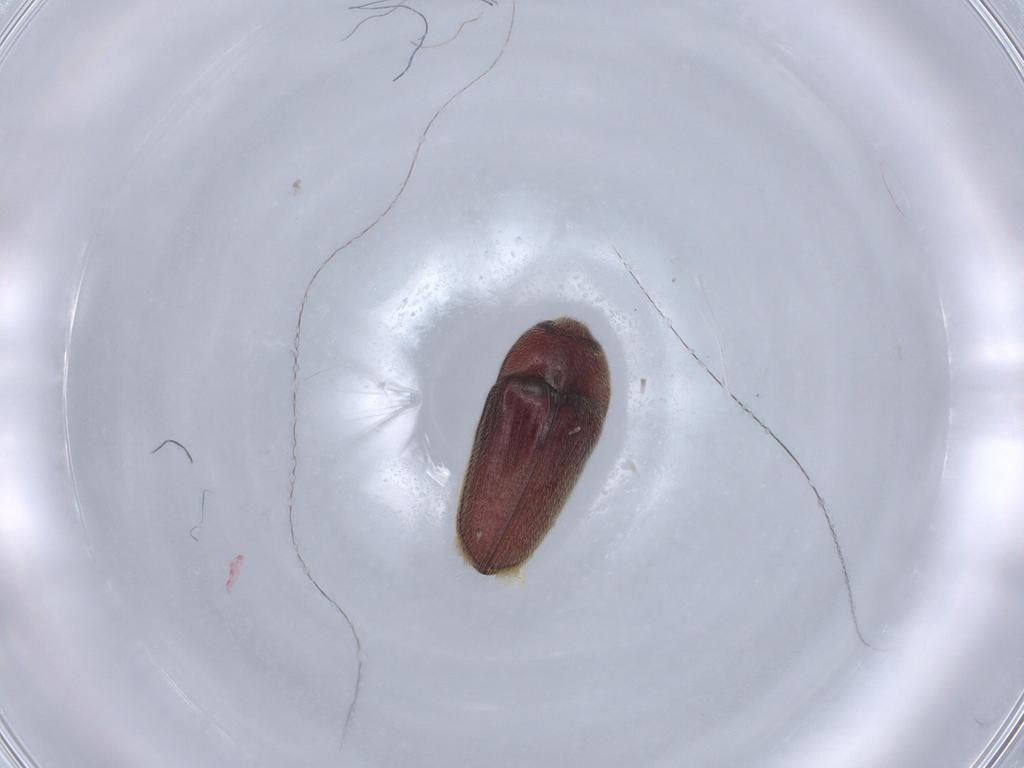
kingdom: Animalia
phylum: Arthropoda
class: Insecta
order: Coleoptera
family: Throscidae
